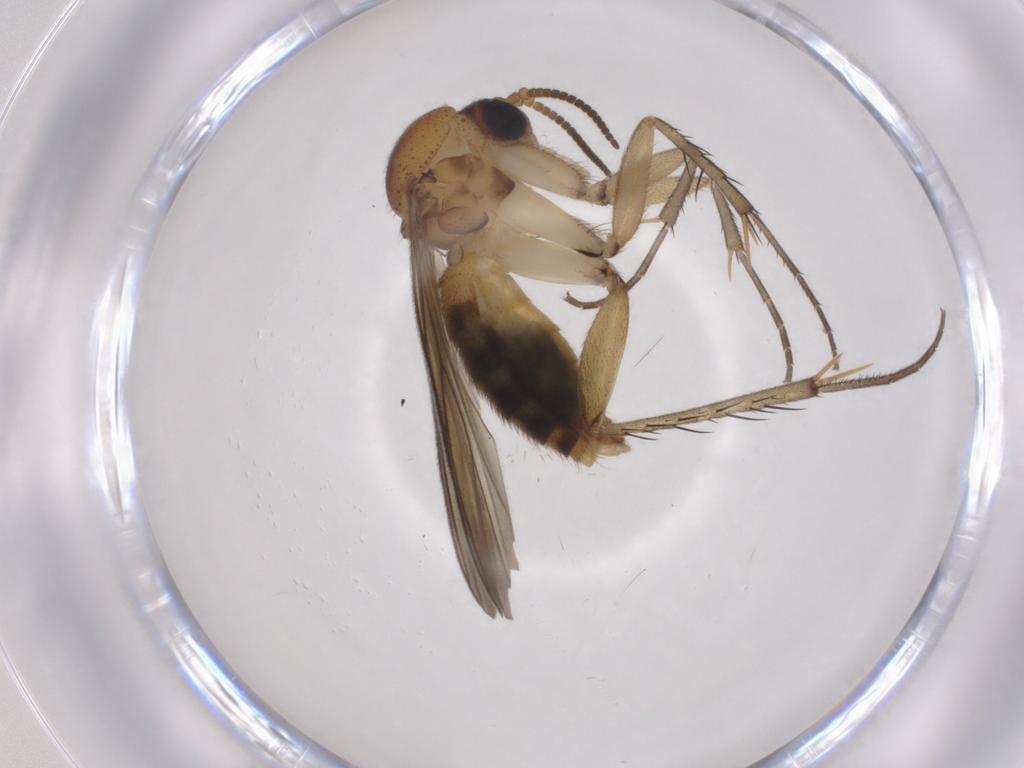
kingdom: Animalia
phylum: Arthropoda
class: Insecta
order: Diptera
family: Mycetophilidae
